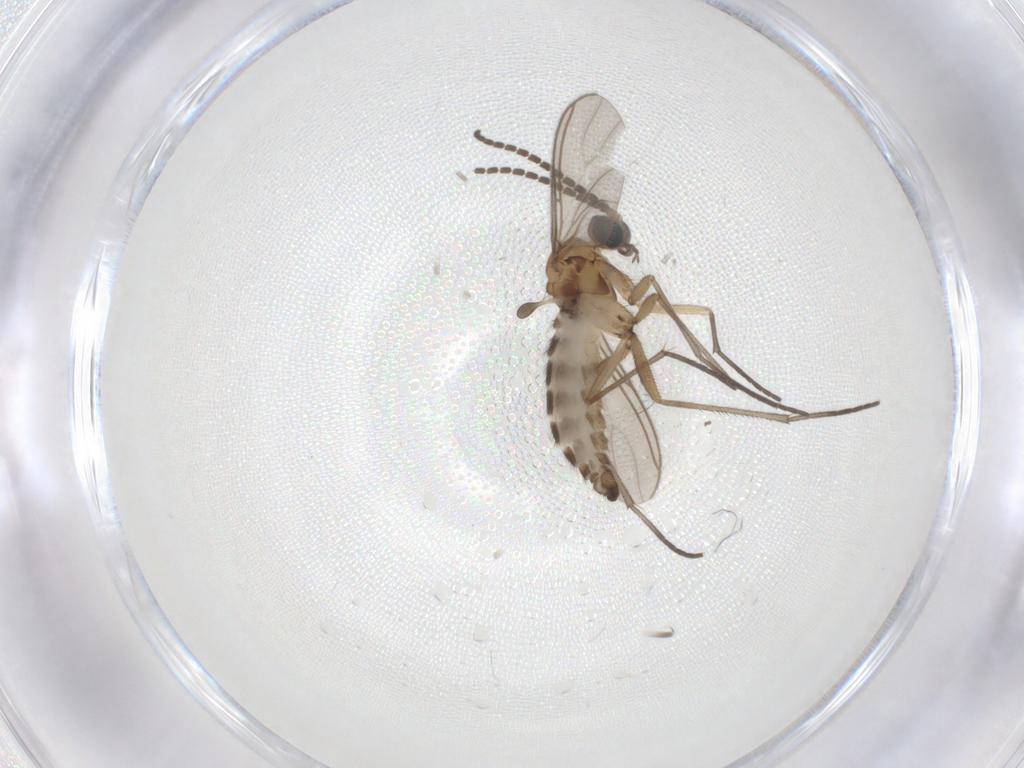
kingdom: Animalia
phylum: Arthropoda
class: Insecta
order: Diptera
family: Sciaridae
